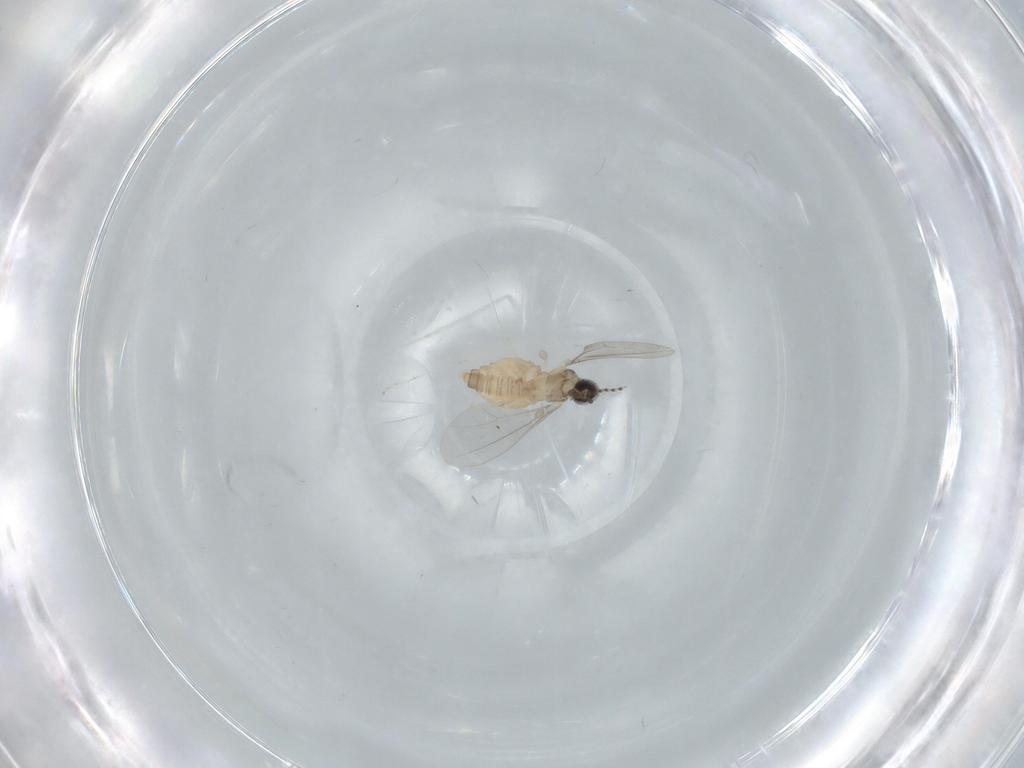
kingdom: Animalia
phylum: Arthropoda
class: Insecta
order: Diptera
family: Cecidomyiidae
